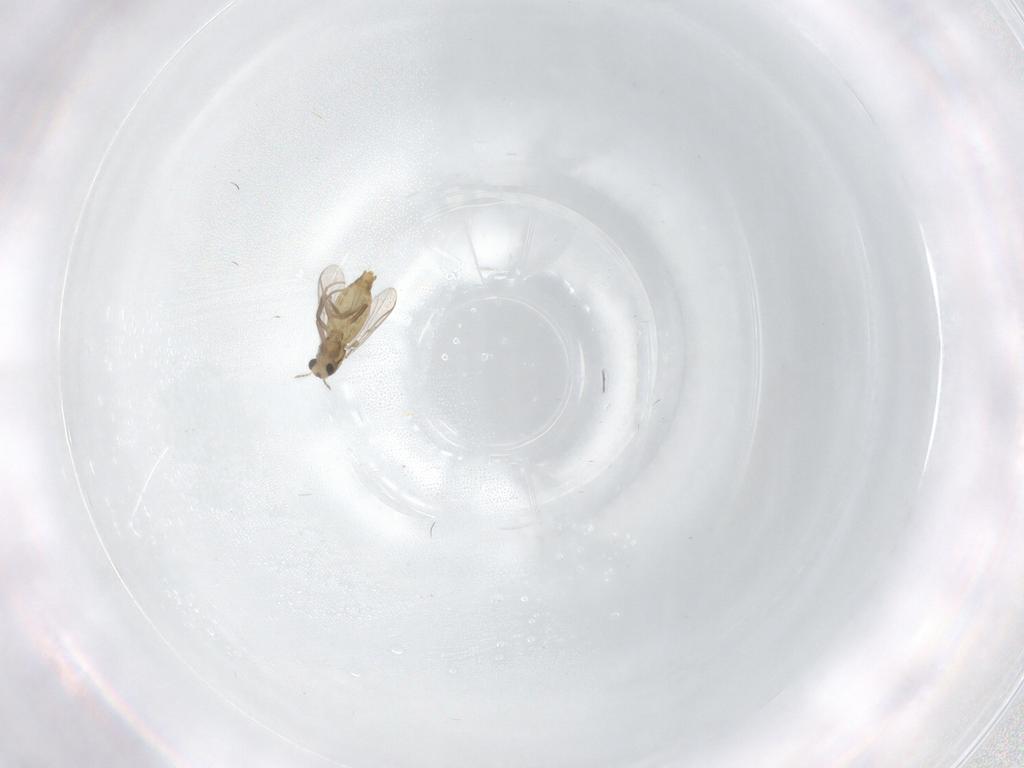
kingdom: Animalia
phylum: Arthropoda
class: Insecta
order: Diptera
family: Chironomidae
